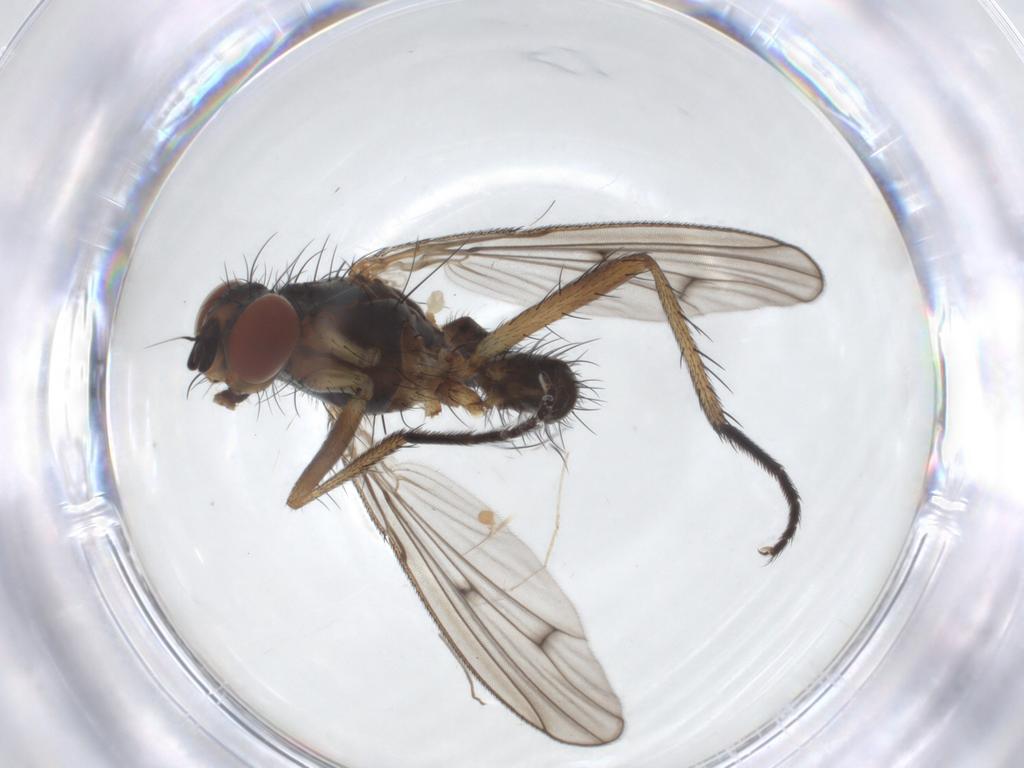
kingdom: Animalia
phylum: Arthropoda
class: Insecta
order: Diptera
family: Anthomyiidae
